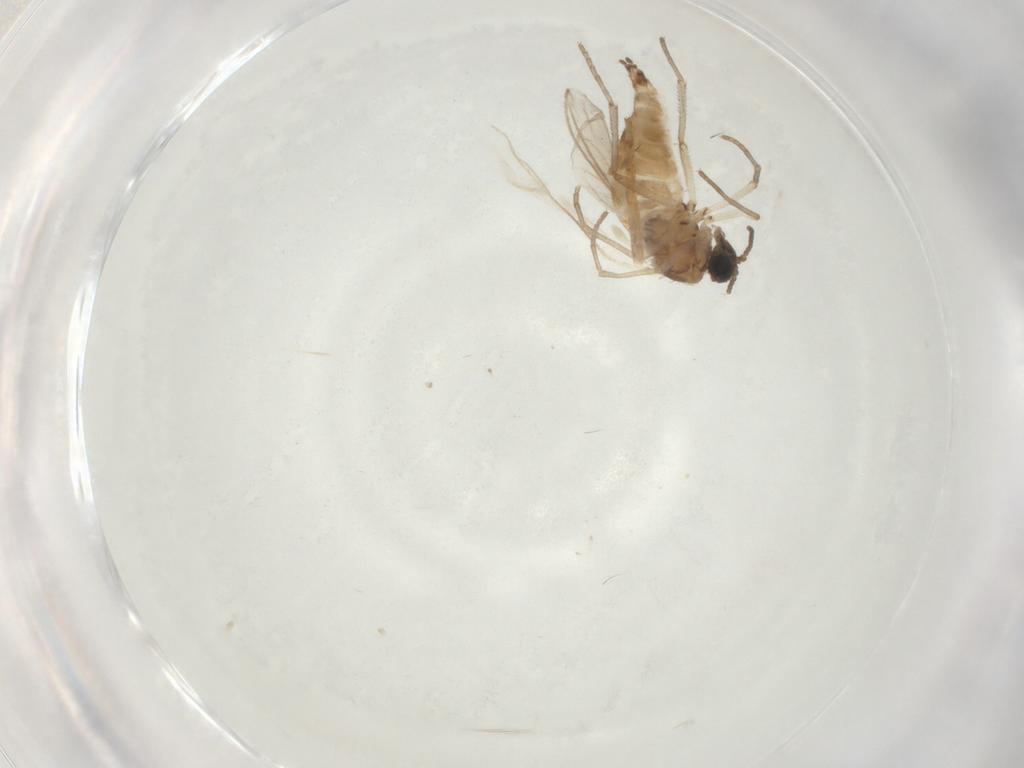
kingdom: Animalia
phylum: Arthropoda
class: Insecta
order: Diptera
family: Sciaridae
